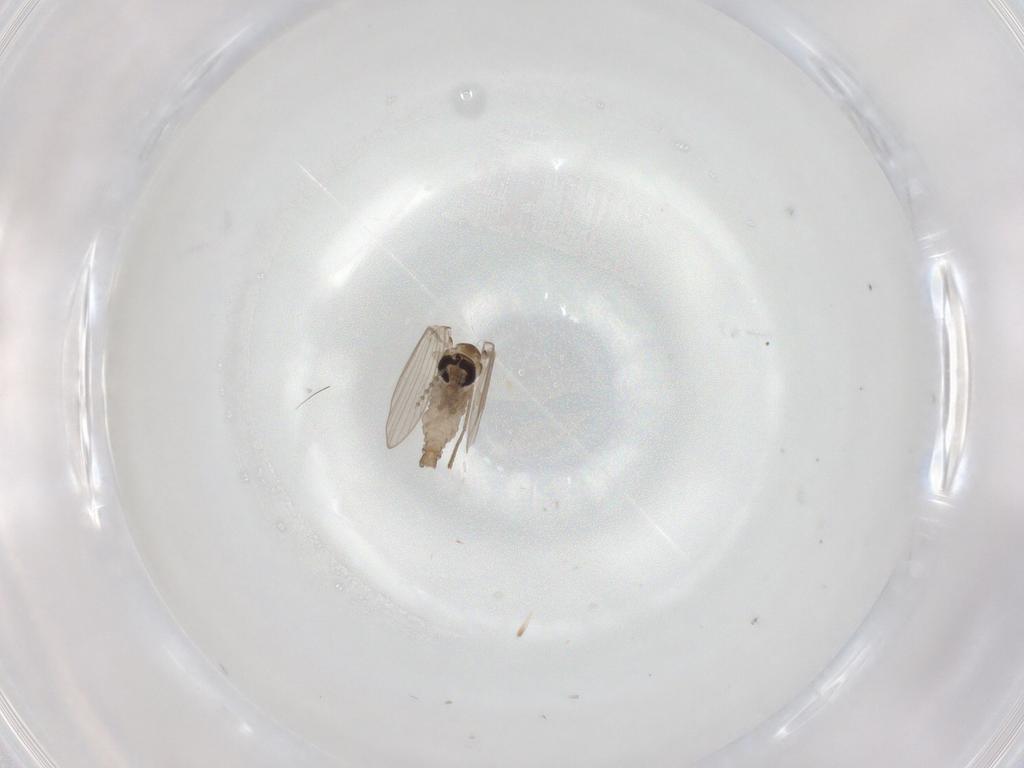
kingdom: Animalia
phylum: Arthropoda
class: Insecta
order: Diptera
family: Psychodidae
